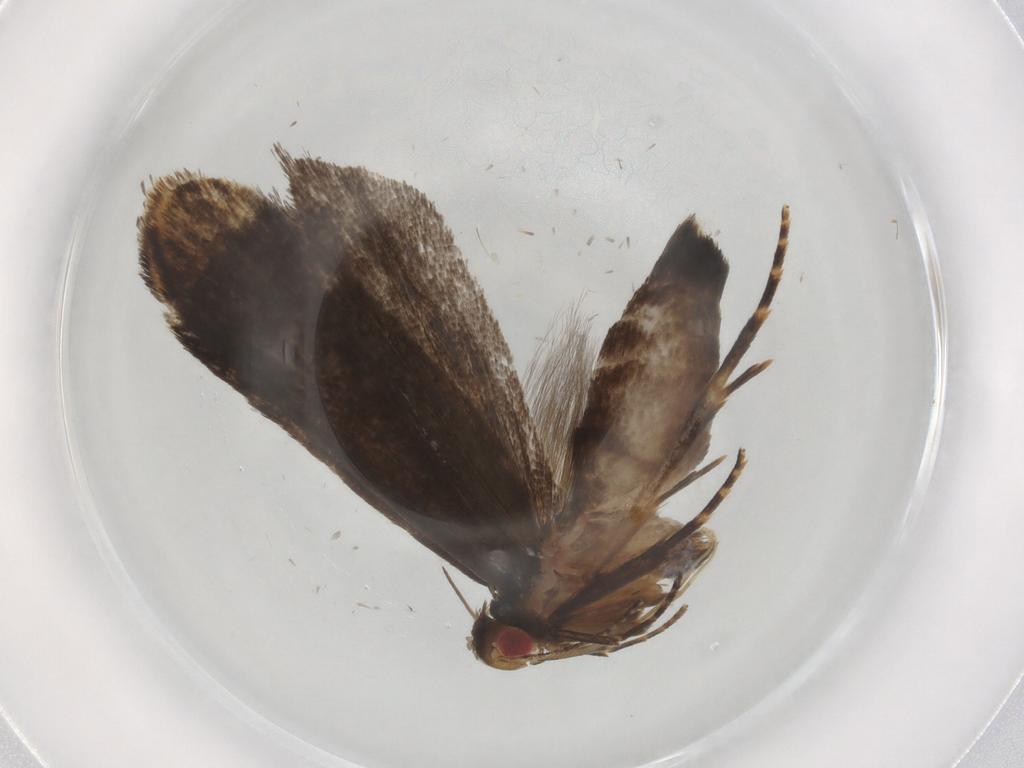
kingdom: Animalia
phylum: Arthropoda
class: Insecta
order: Lepidoptera
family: Gelechiidae
